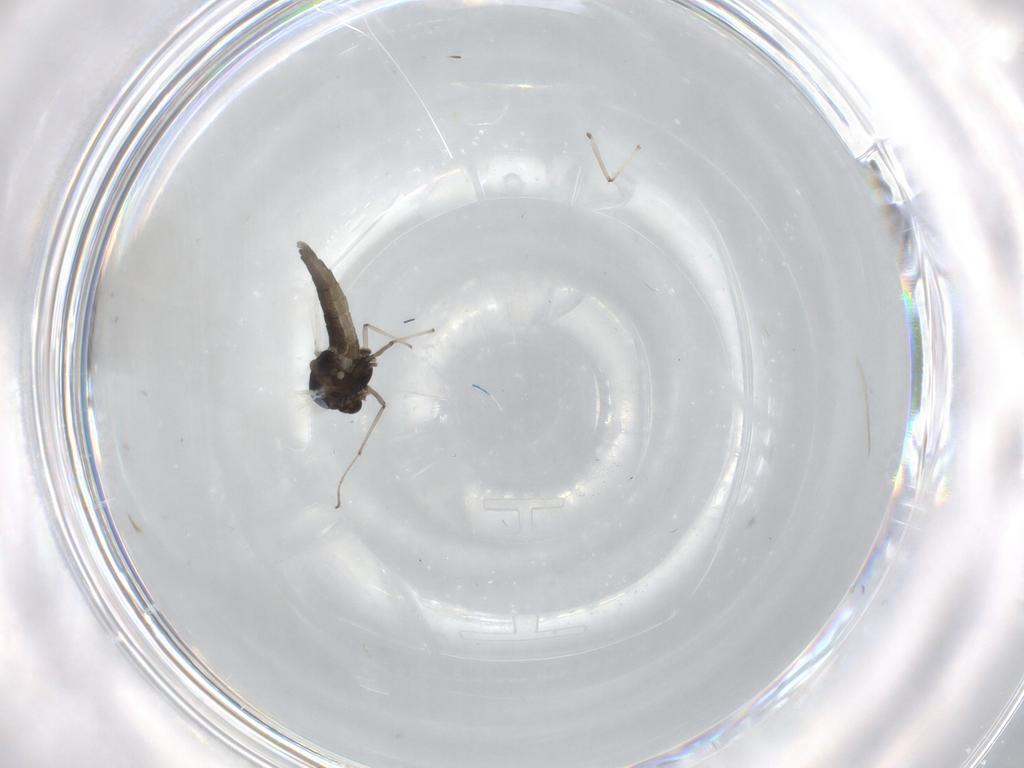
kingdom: Animalia
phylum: Arthropoda
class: Insecta
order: Diptera
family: Chironomidae
